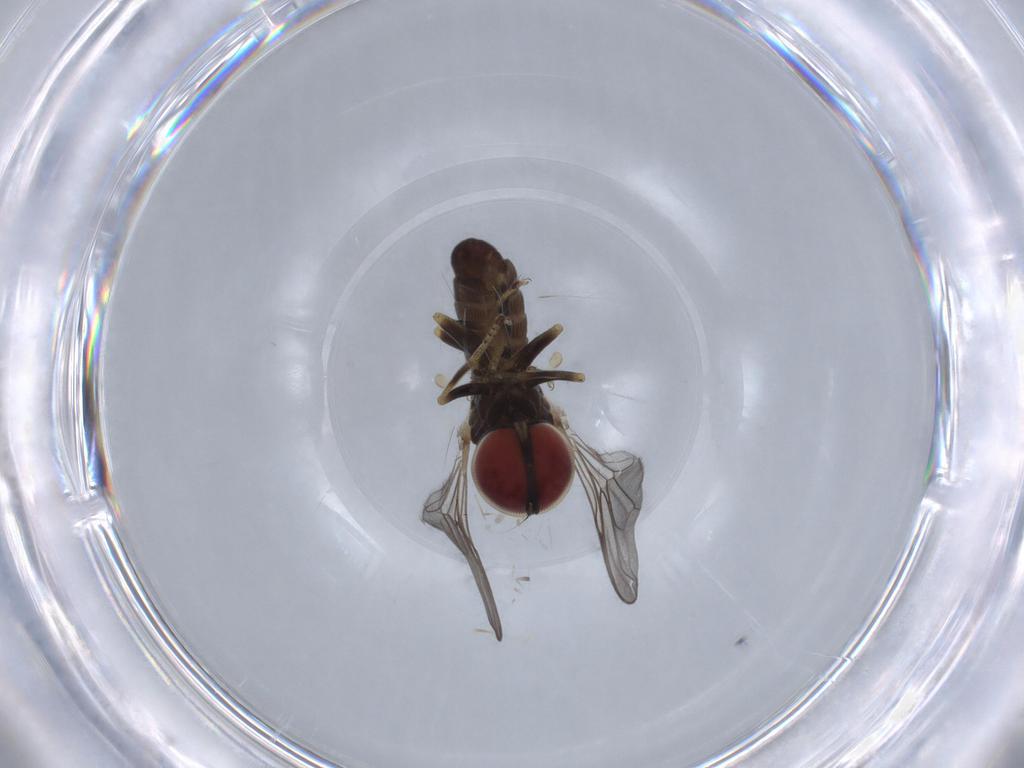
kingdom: Animalia
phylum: Arthropoda
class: Insecta
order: Diptera
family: Pipunculidae
